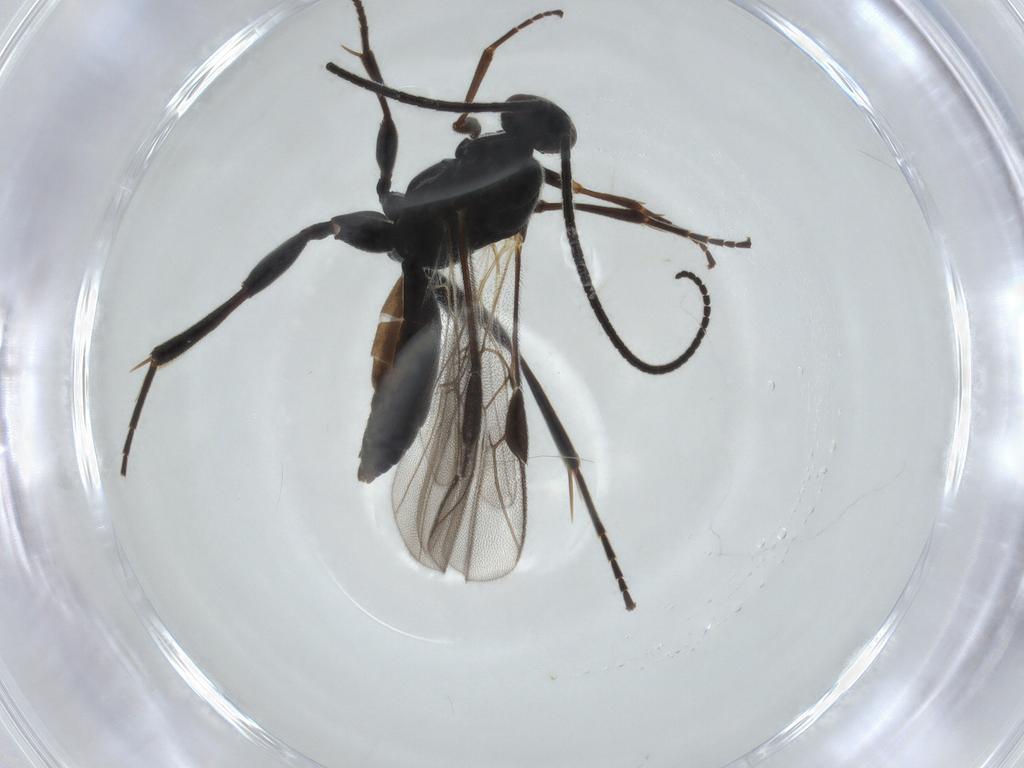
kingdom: Animalia
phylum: Arthropoda
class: Insecta
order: Hymenoptera
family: Braconidae
